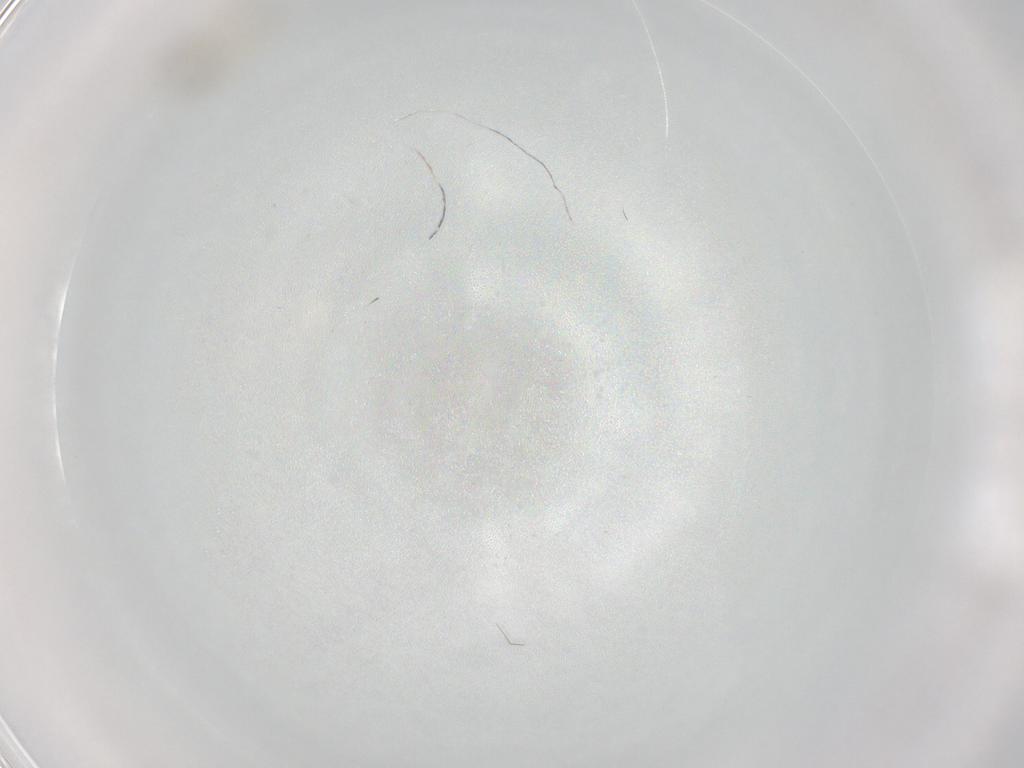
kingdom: Animalia
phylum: Arthropoda
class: Insecta
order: Diptera
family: Cecidomyiidae
